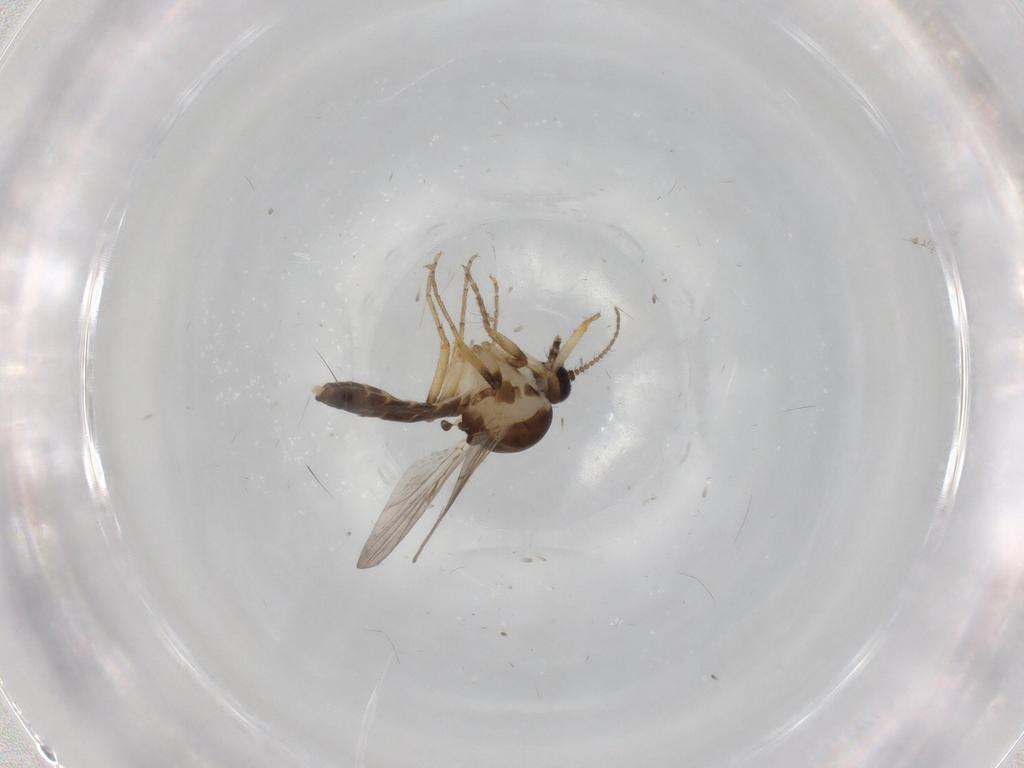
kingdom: Animalia
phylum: Arthropoda
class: Insecta
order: Diptera
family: Ceratopogonidae
